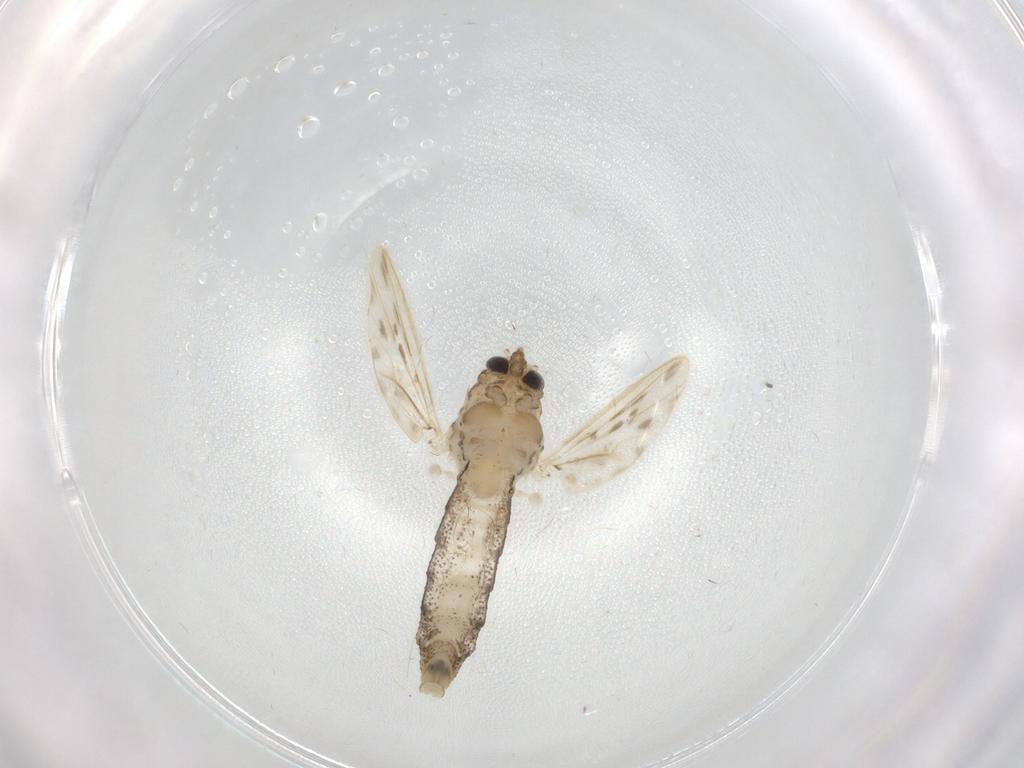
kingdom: Animalia
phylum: Arthropoda
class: Insecta
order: Diptera
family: Chaoboridae
